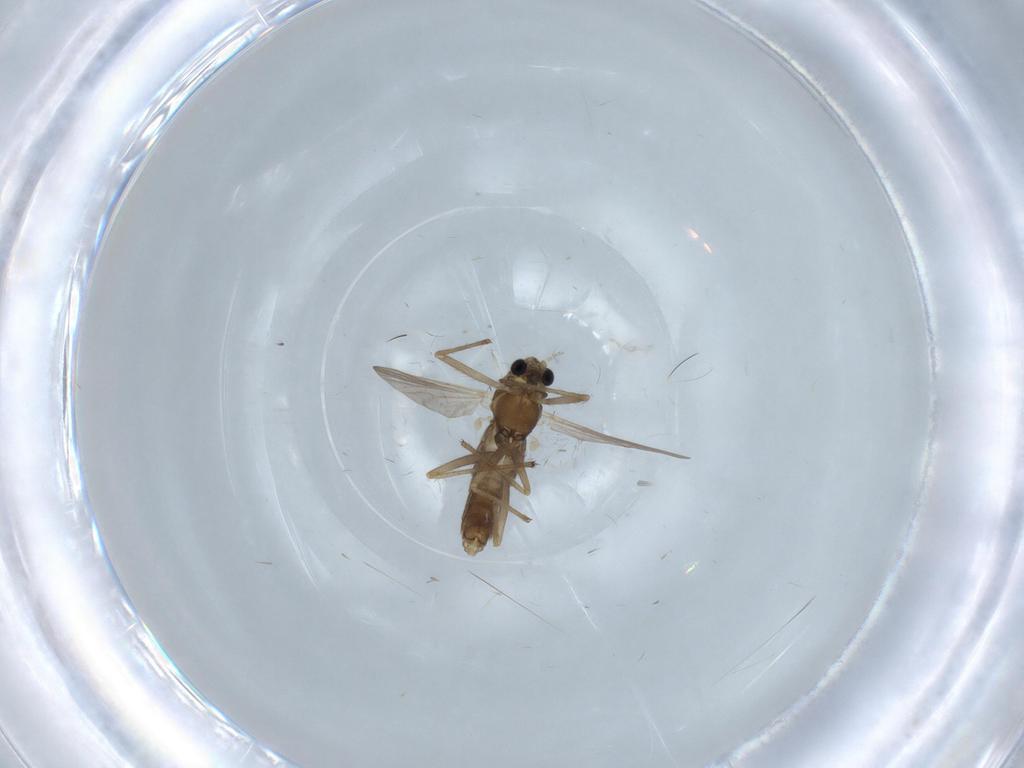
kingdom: Animalia
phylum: Arthropoda
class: Insecta
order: Diptera
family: Chironomidae
